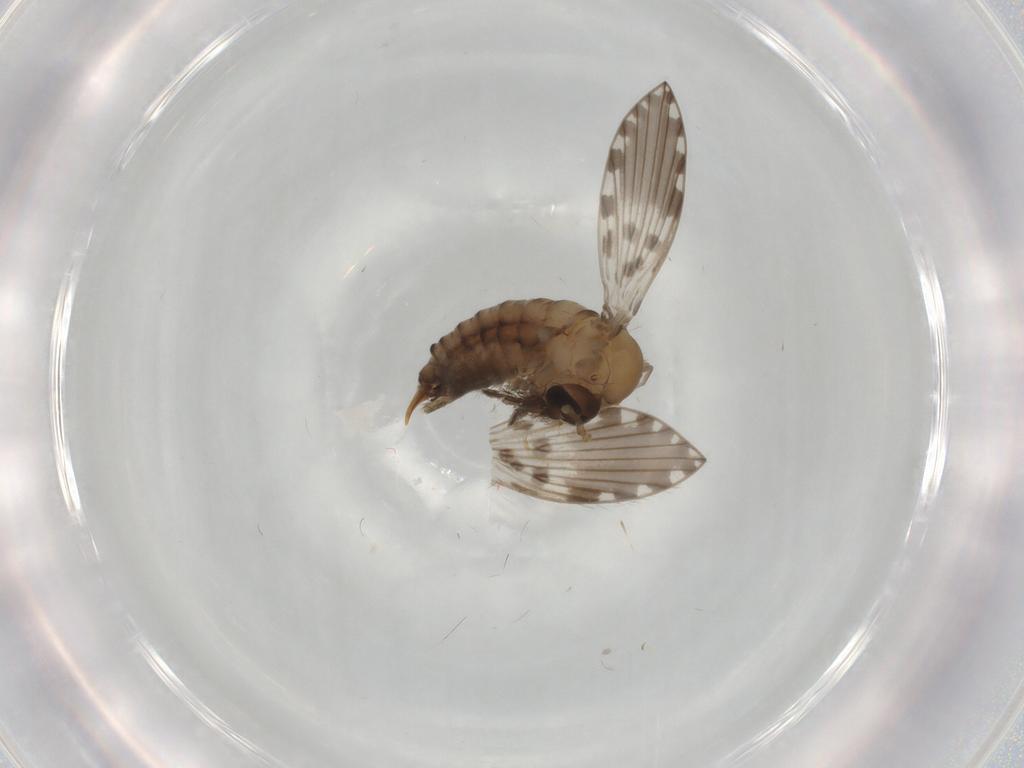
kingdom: Animalia
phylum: Arthropoda
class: Insecta
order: Diptera
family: Psychodidae
